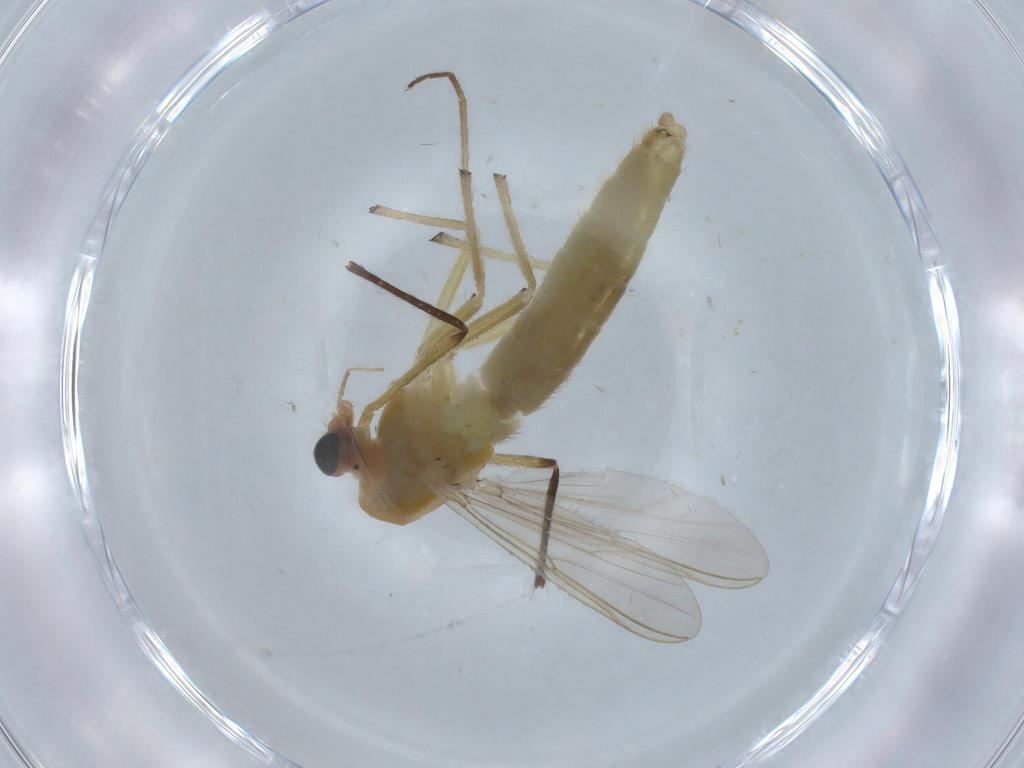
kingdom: Animalia
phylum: Arthropoda
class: Insecta
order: Diptera
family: Chironomidae
